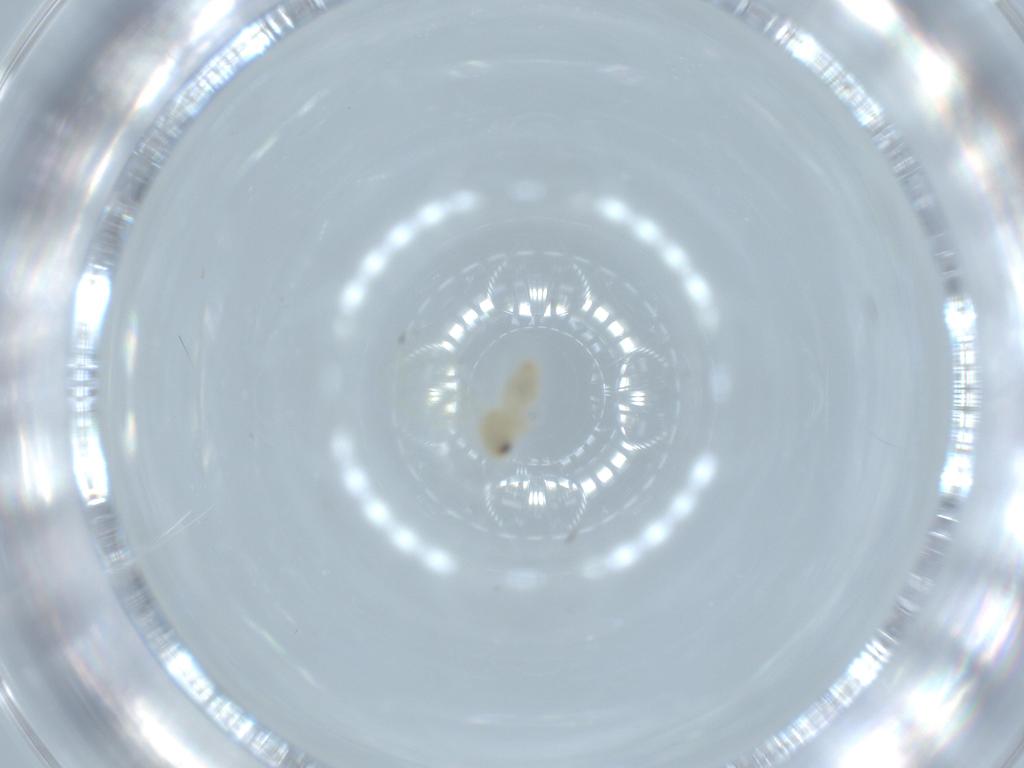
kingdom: Animalia
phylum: Arthropoda
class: Insecta
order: Hemiptera
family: Aleyrodidae
